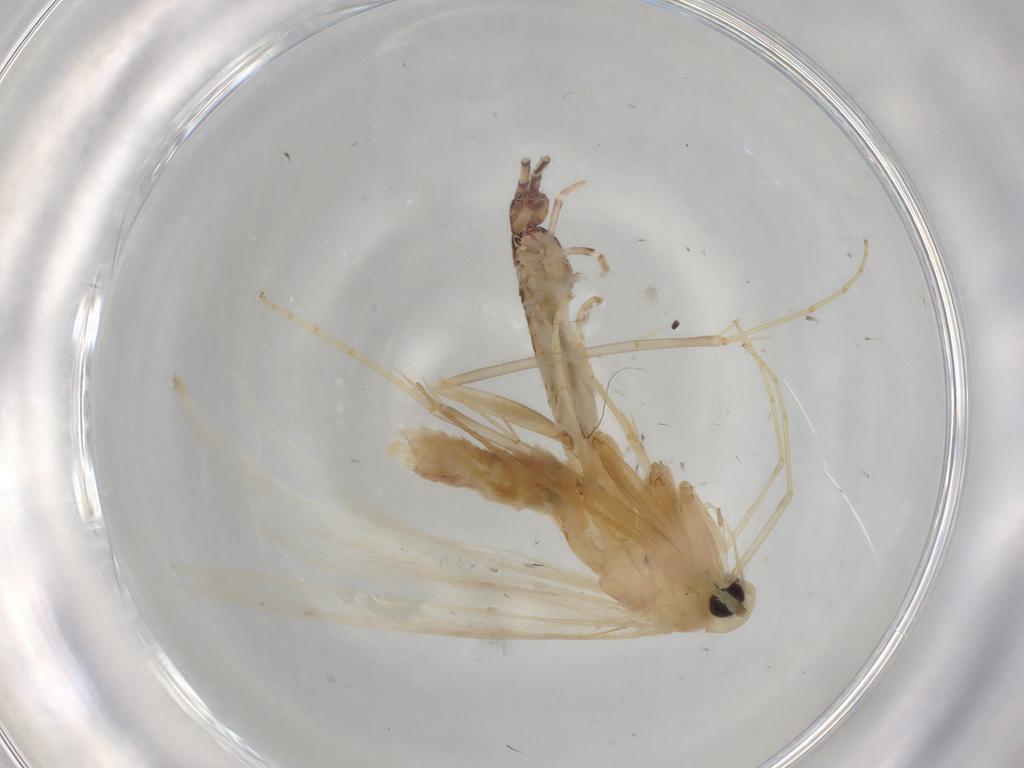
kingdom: Animalia
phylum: Arthropoda
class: Insecta
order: Lepidoptera
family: Xyloryctidae
